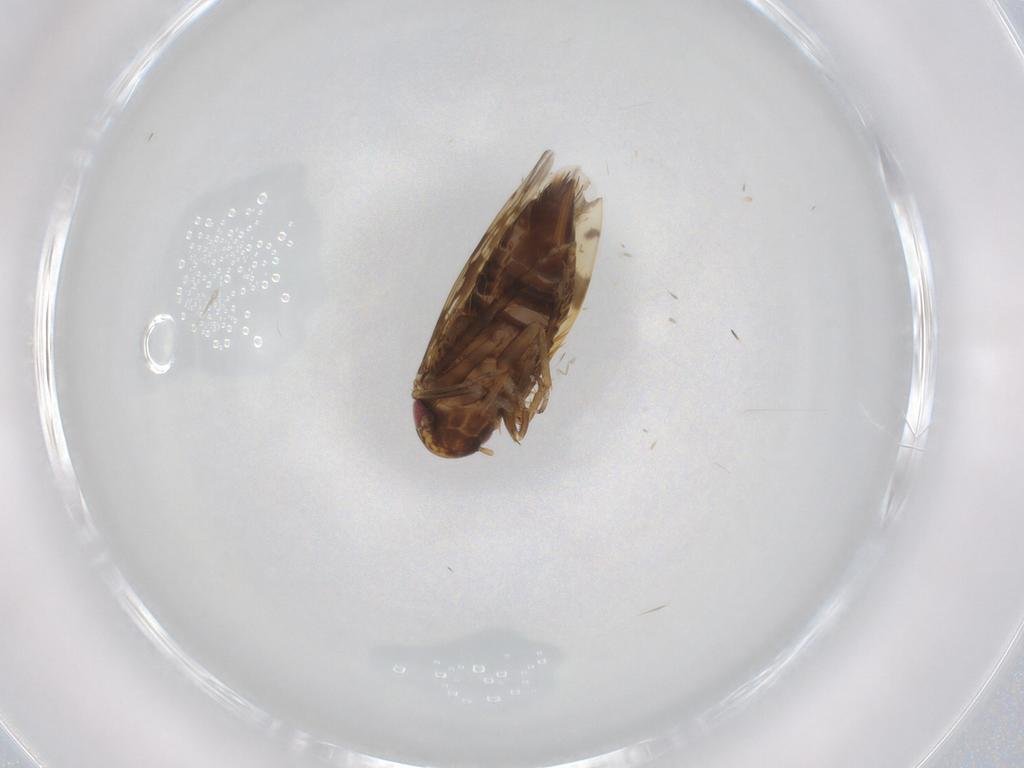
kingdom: Animalia
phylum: Arthropoda
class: Insecta
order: Hemiptera
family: Cicadellidae
